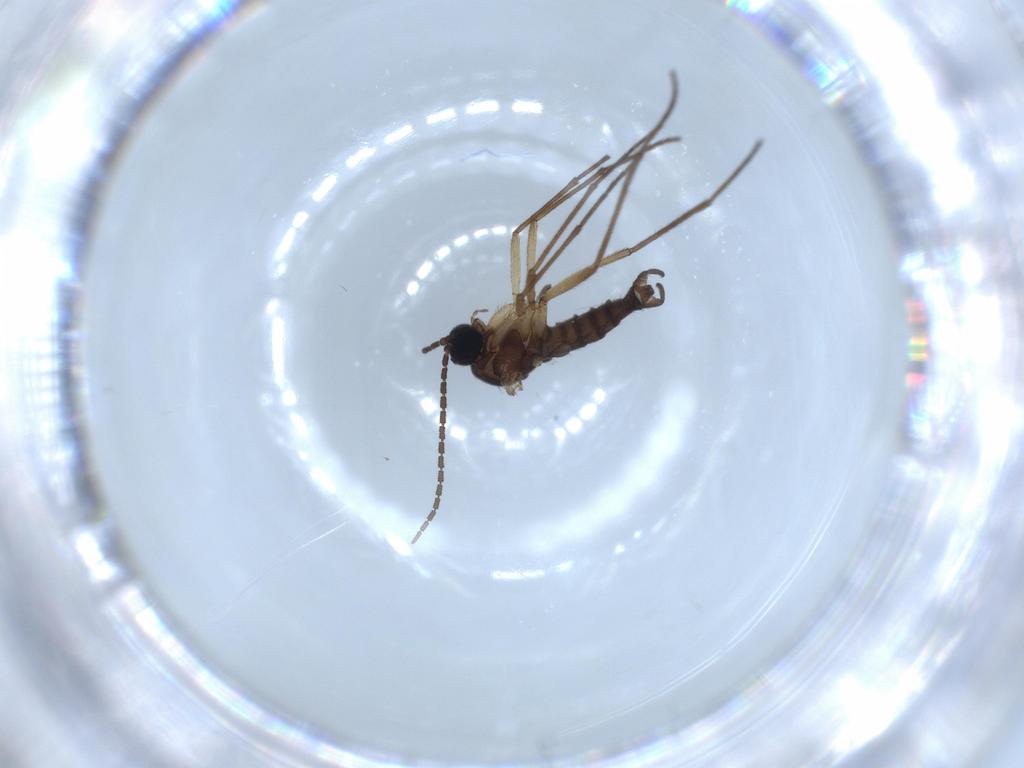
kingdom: Animalia
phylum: Arthropoda
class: Insecta
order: Diptera
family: Sciaridae
